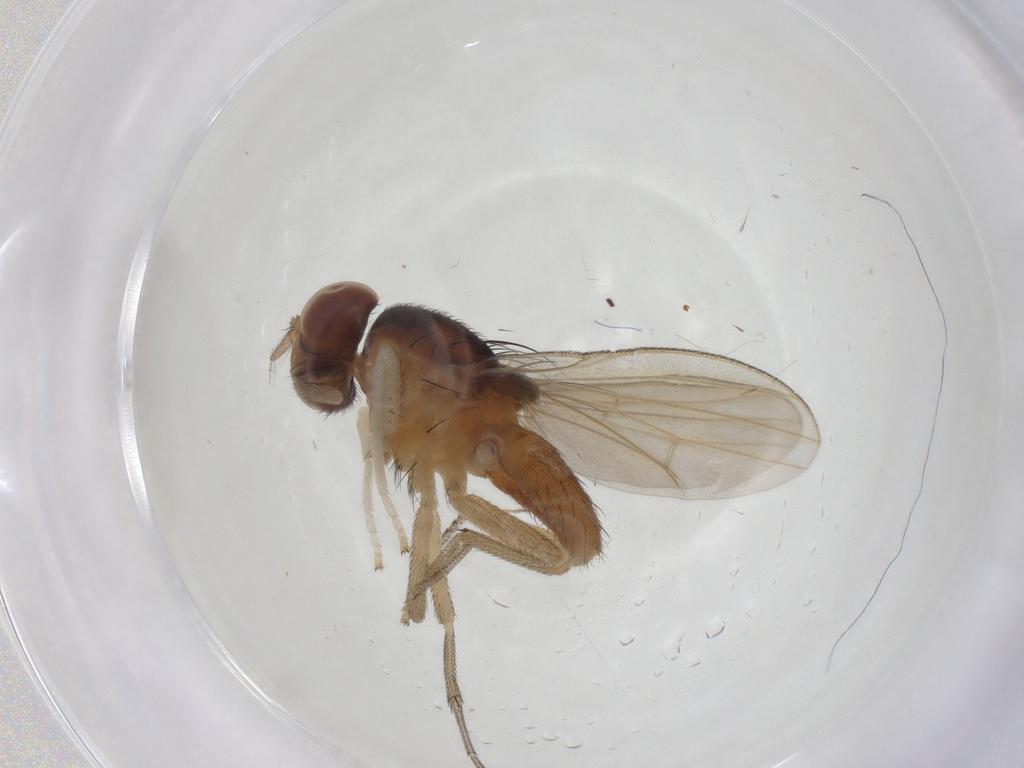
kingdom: Animalia
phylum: Arthropoda
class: Insecta
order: Diptera
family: Lauxaniidae
